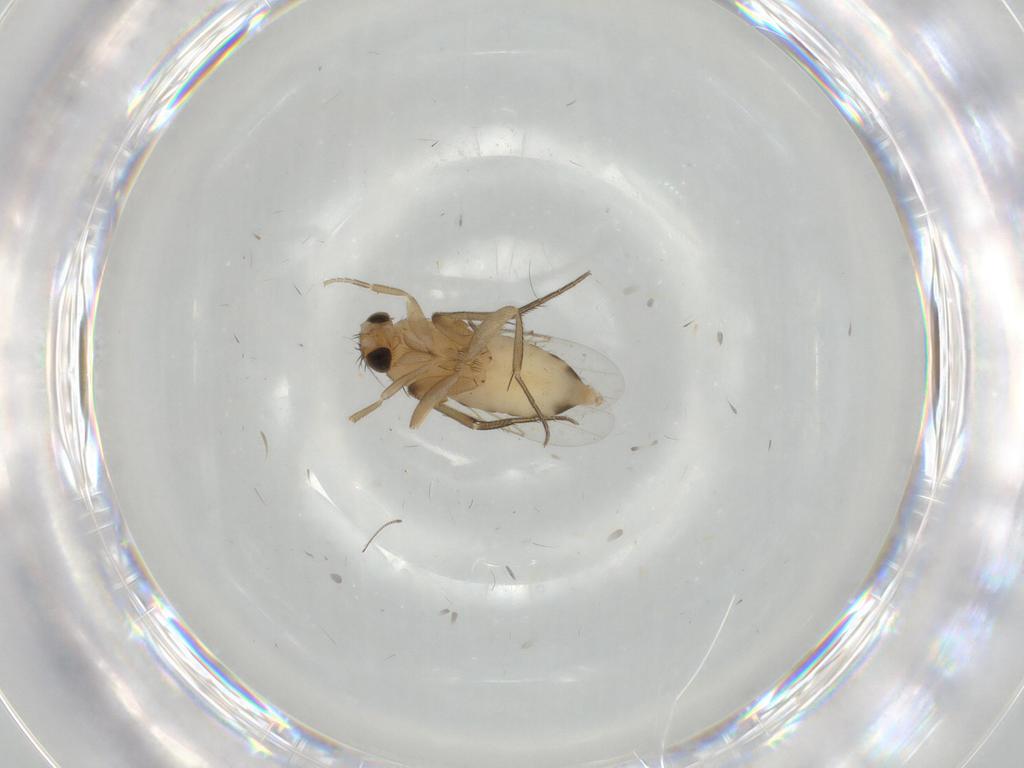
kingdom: Animalia
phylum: Arthropoda
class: Insecta
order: Diptera
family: Chironomidae
